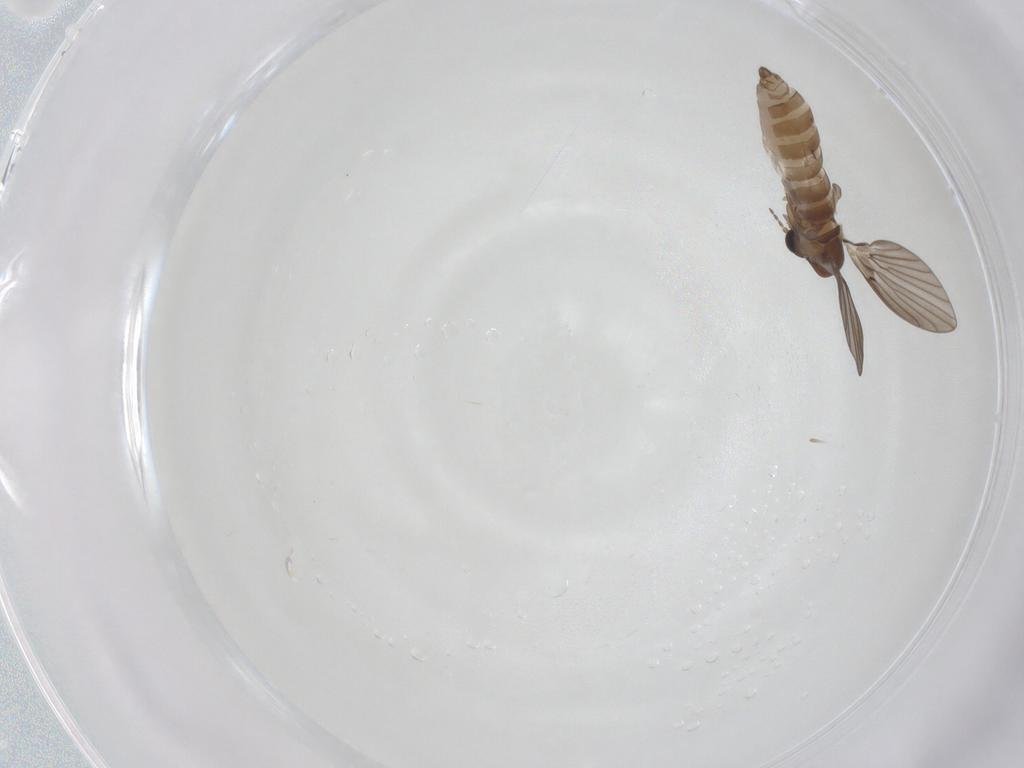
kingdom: Animalia
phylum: Arthropoda
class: Insecta
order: Diptera
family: Psychodidae
